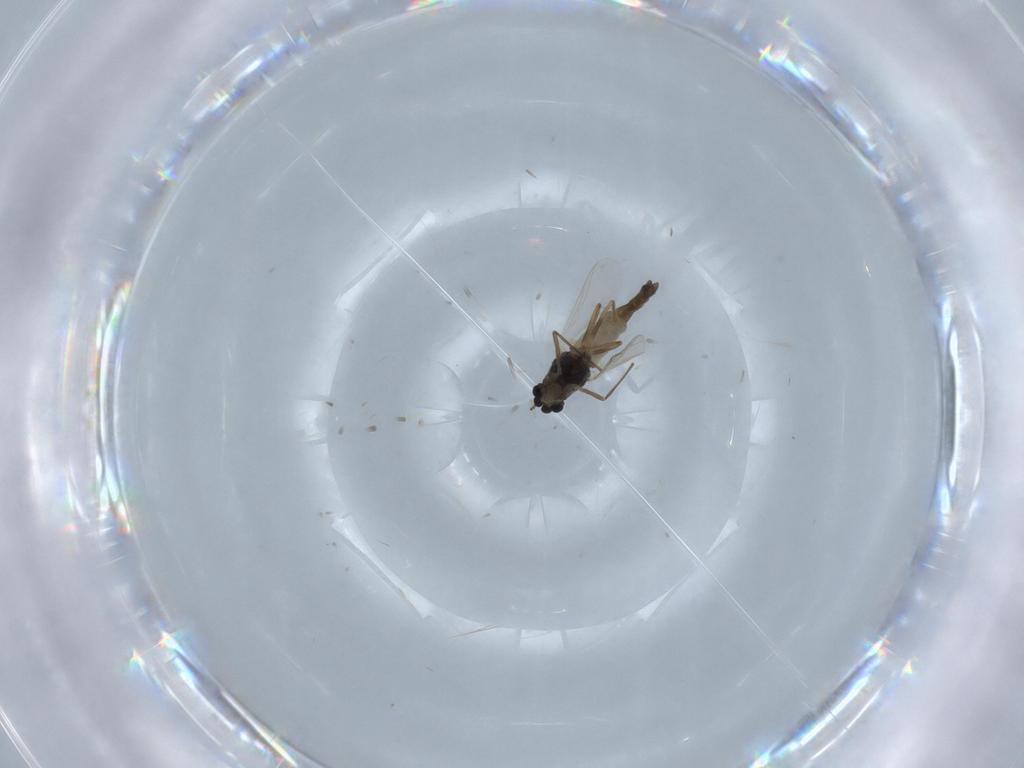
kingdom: Animalia
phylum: Arthropoda
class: Insecta
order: Diptera
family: Chironomidae
